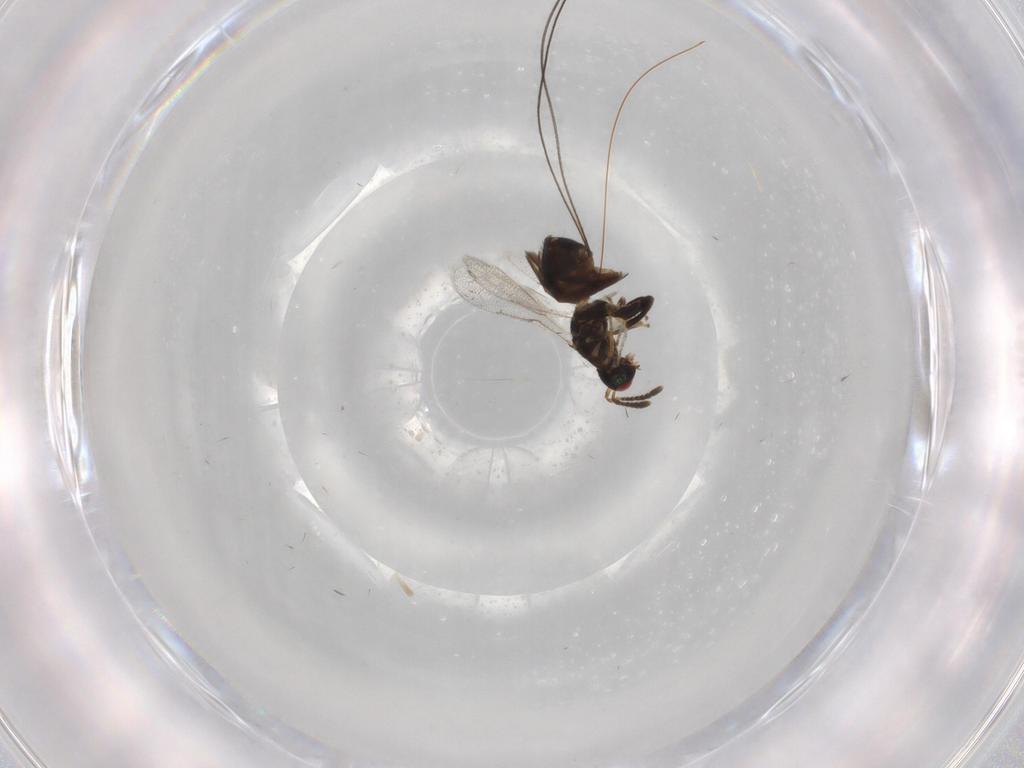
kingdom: Animalia
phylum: Arthropoda
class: Insecta
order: Hymenoptera
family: Torymidae
